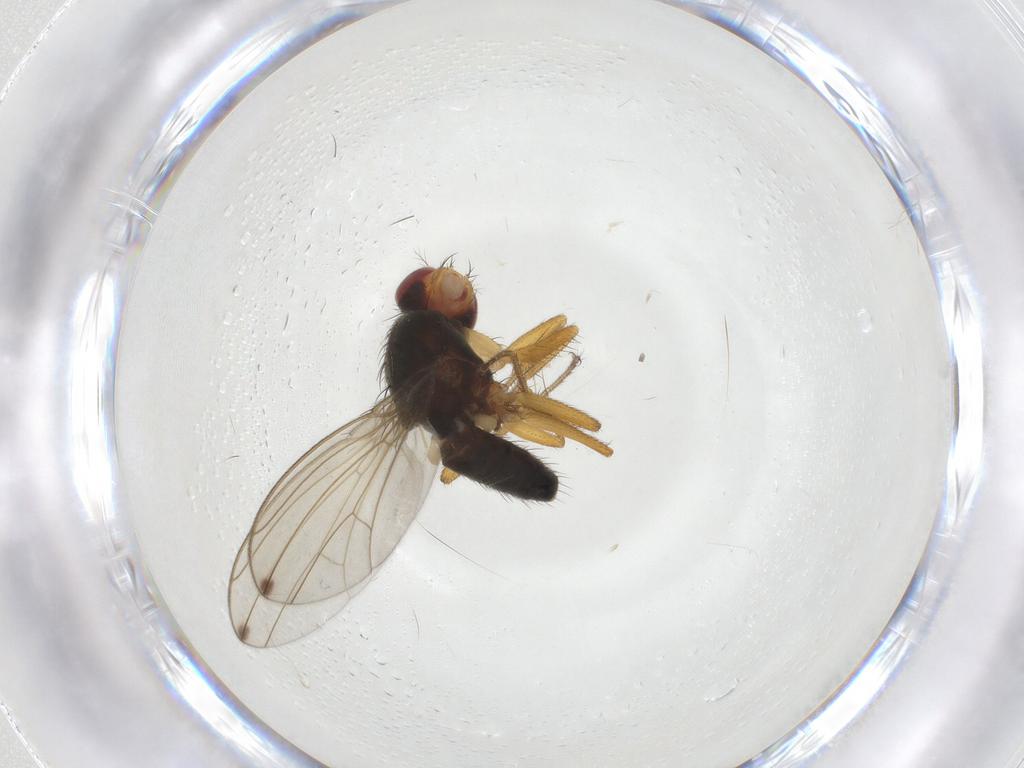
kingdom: Animalia
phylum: Arthropoda
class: Insecta
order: Diptera
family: Drosophilidae
